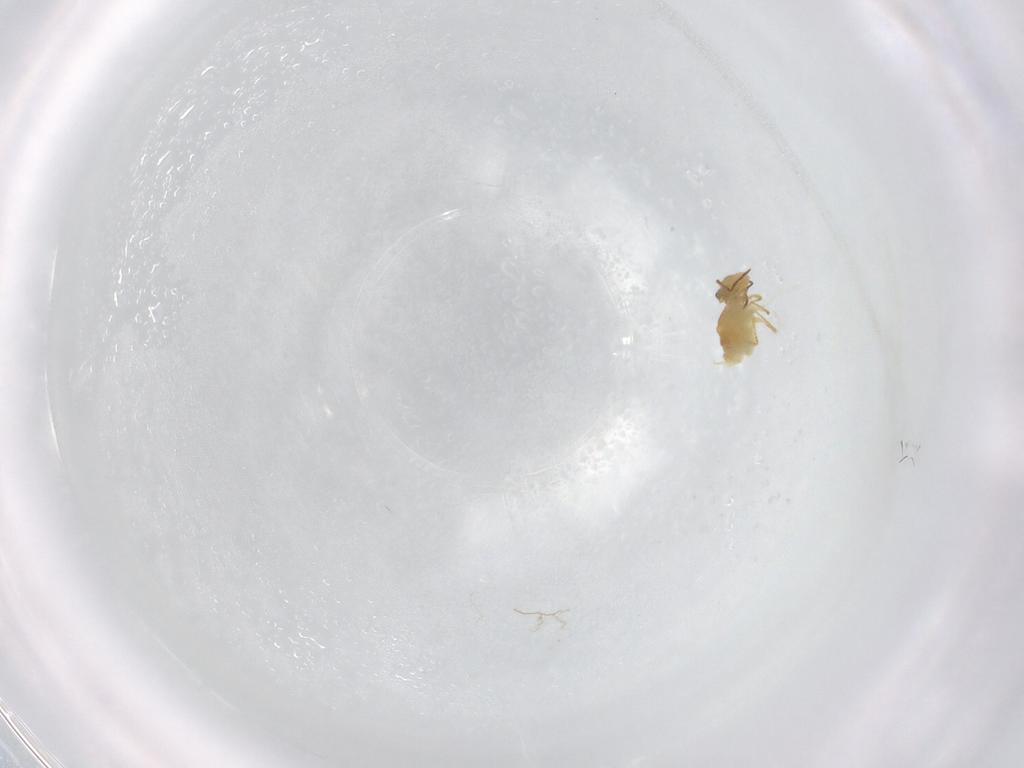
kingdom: Animalia
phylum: Arthropoda
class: Collembola
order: Symphypleona
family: Bourletiellidae
